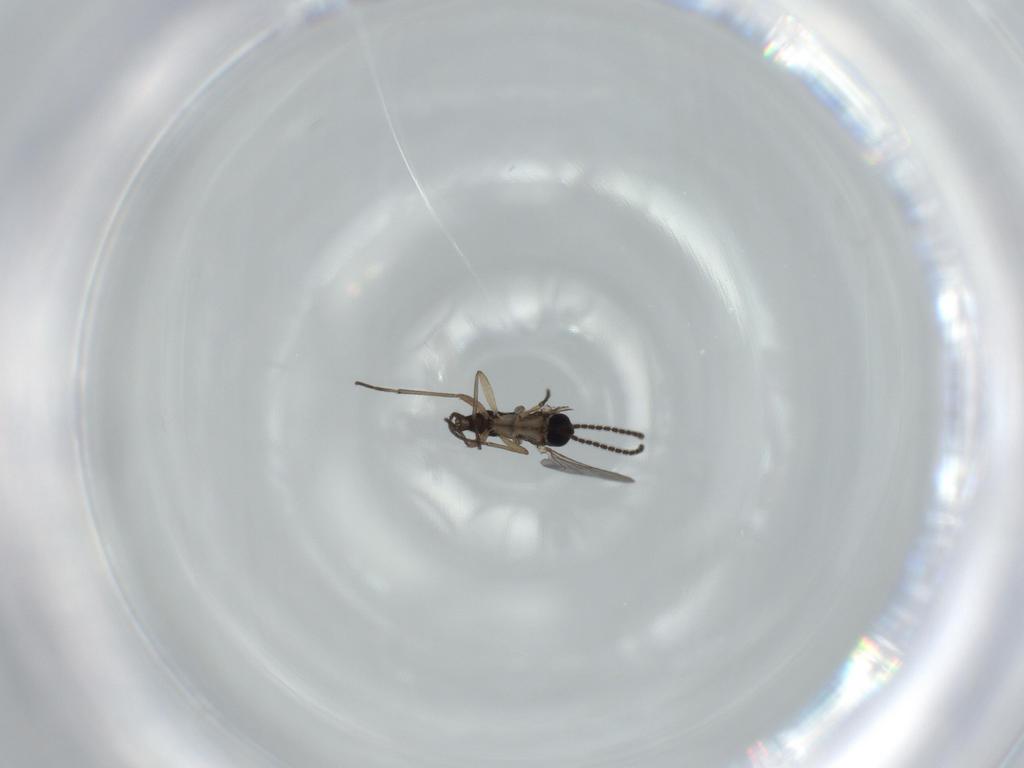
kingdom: Animalia
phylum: Arthropoda
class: Insecta
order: Diptera
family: Sciaridae
